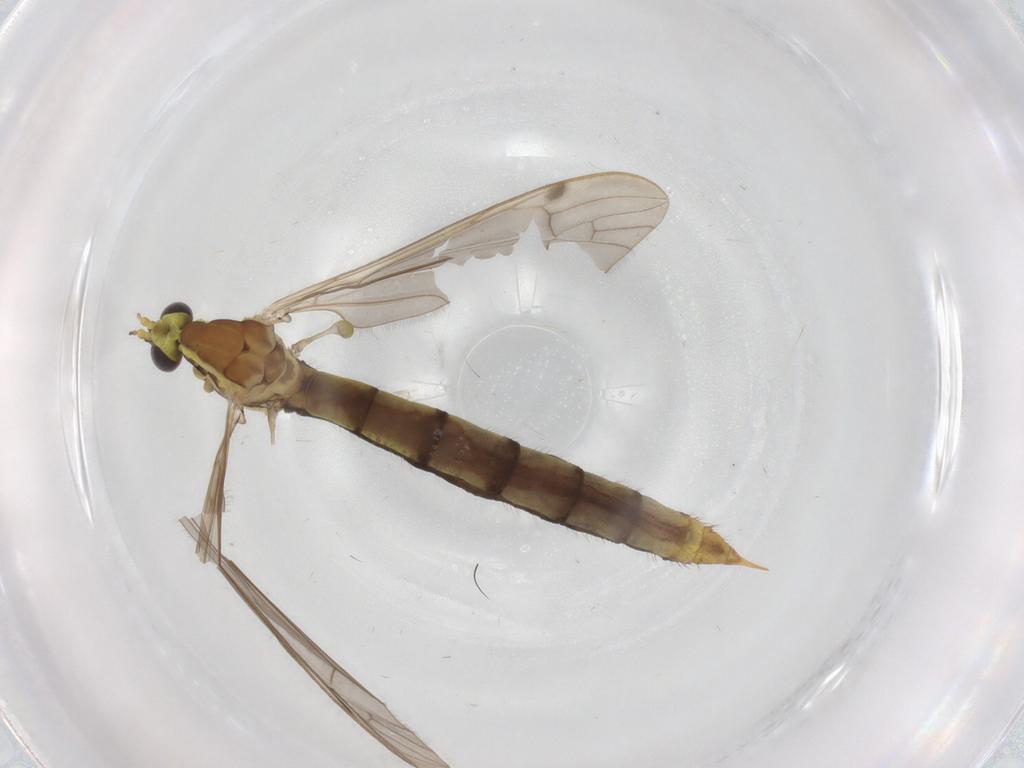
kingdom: Animalia
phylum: Arthropoda
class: Insecta
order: Diptera
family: Limoniidae
